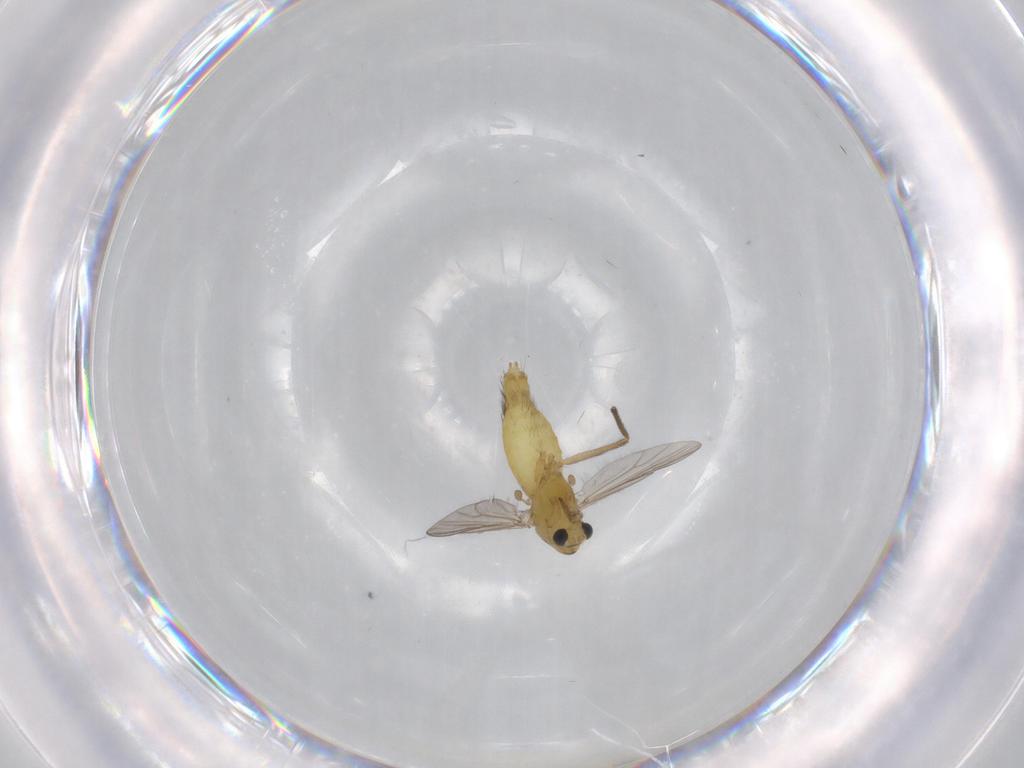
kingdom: Animalia
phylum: Arthropoda
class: Insecta
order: Diptera
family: Chironomidae
